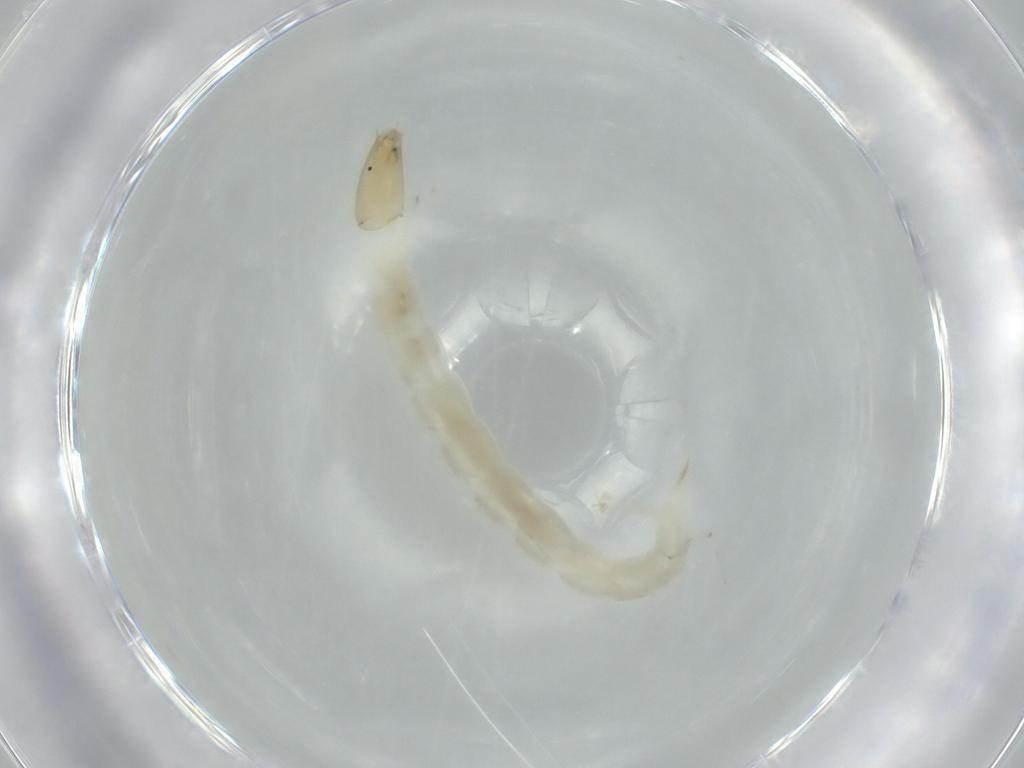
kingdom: Animalia
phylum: Arthropoda
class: Insecta
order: Diptera
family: Chironomidae
